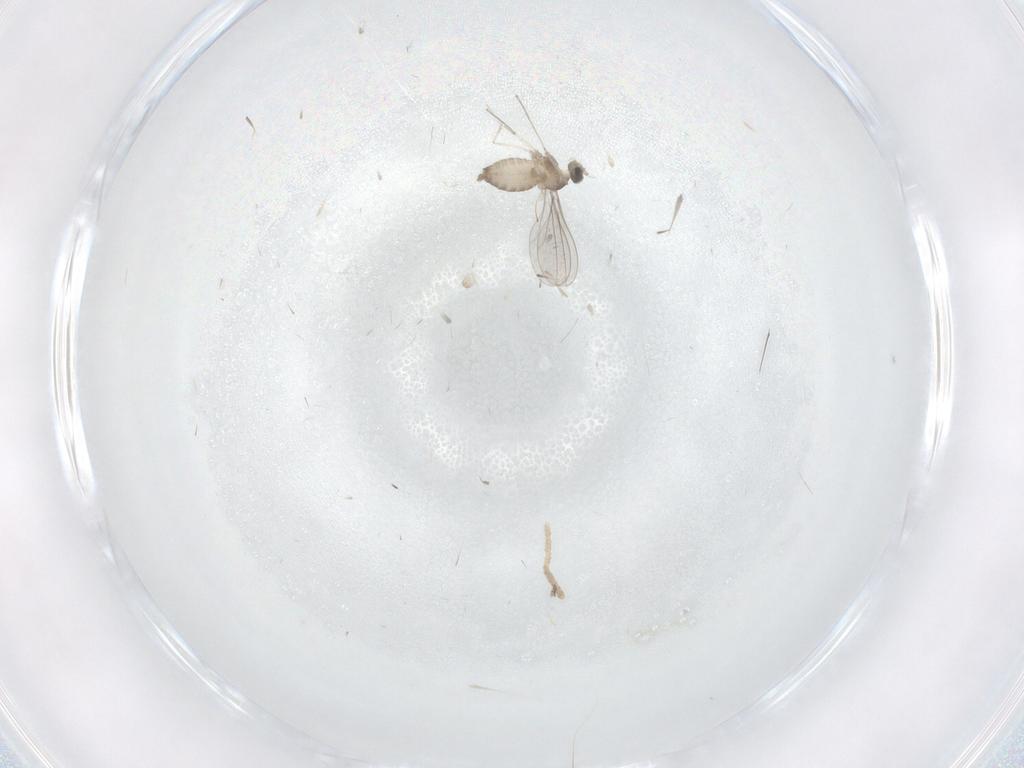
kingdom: Animalia
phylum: Arthropoda
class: Insecta
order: Diptera
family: Cecidomyiidae
